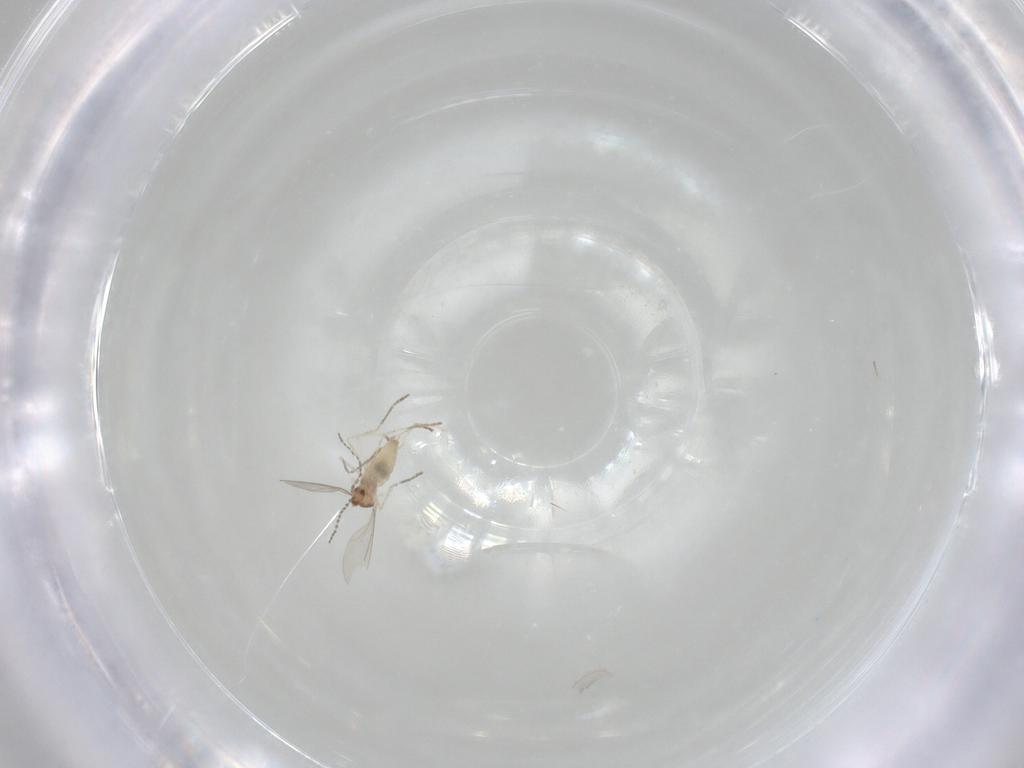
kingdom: Animalia
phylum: Arthropoda
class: Insecta
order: Diptera
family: Cecidomyiidae
